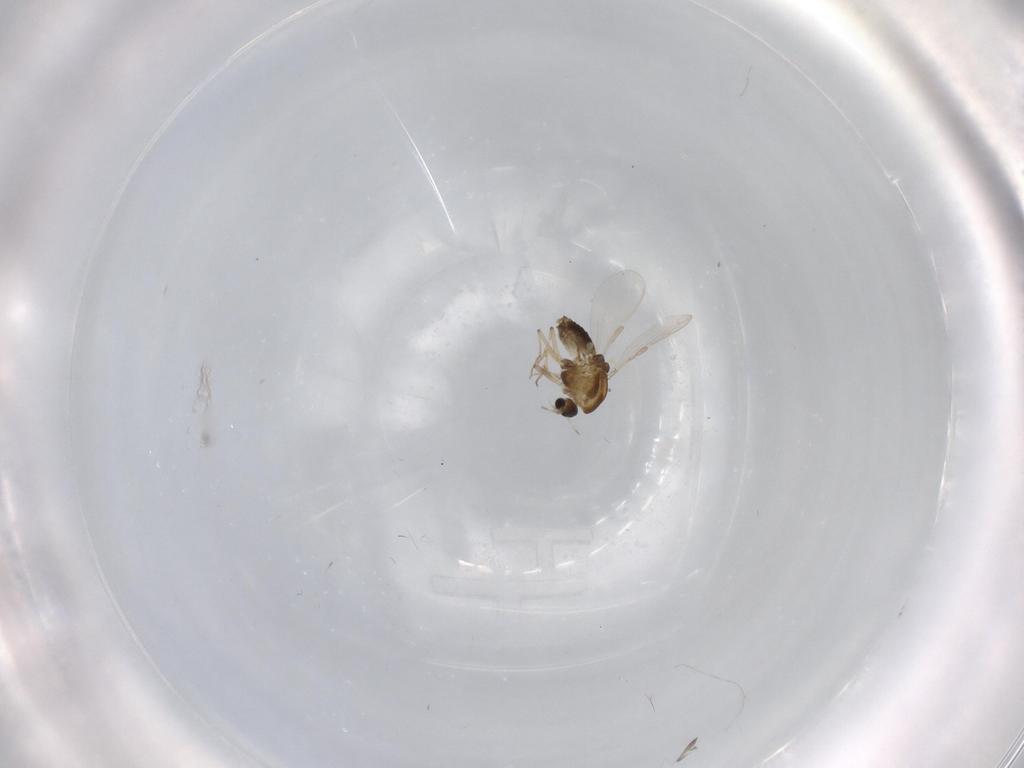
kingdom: Animalia
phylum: Arthropoda
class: Insecta
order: Diptera
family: Chironomidae
